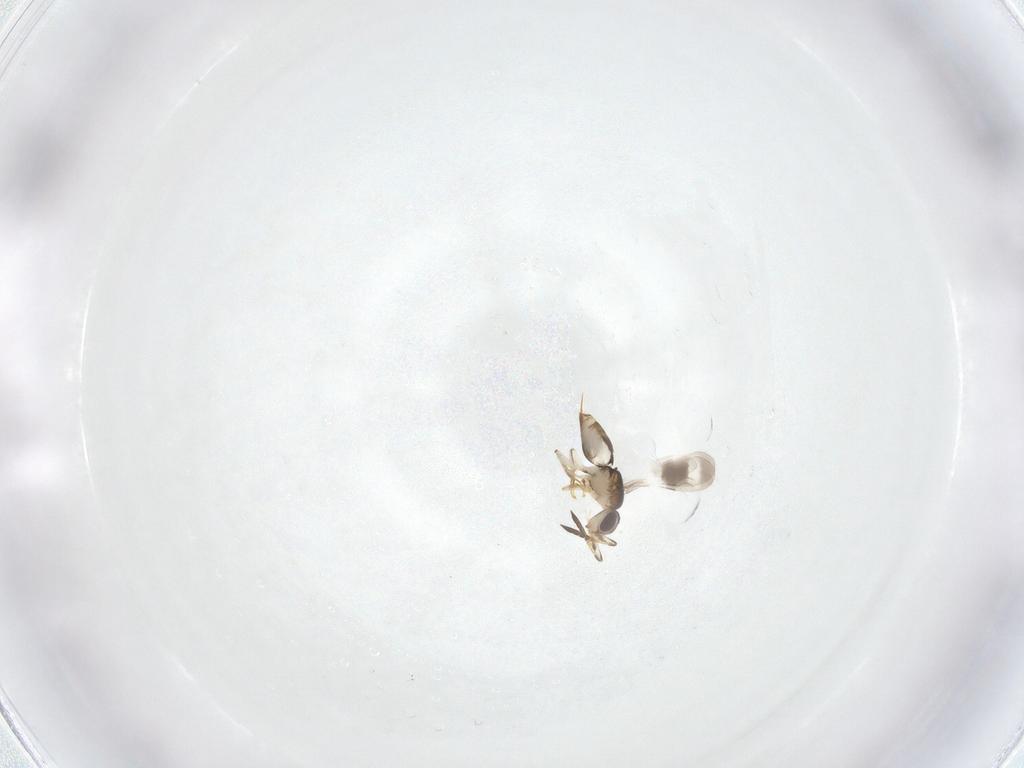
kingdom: Animalia
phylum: Arthropoda
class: Insecta
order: Hymenoptera
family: Ceraphronidae
